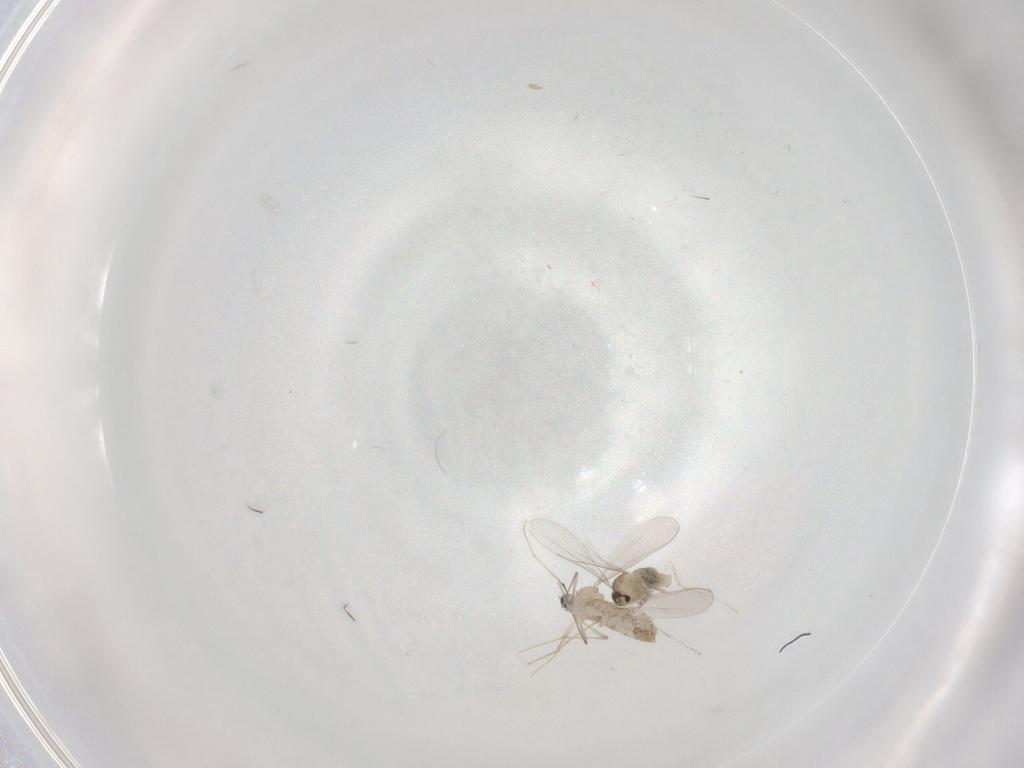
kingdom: Animalia
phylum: Arthropoda
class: Insecta
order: Diptera
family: Chironomidae
